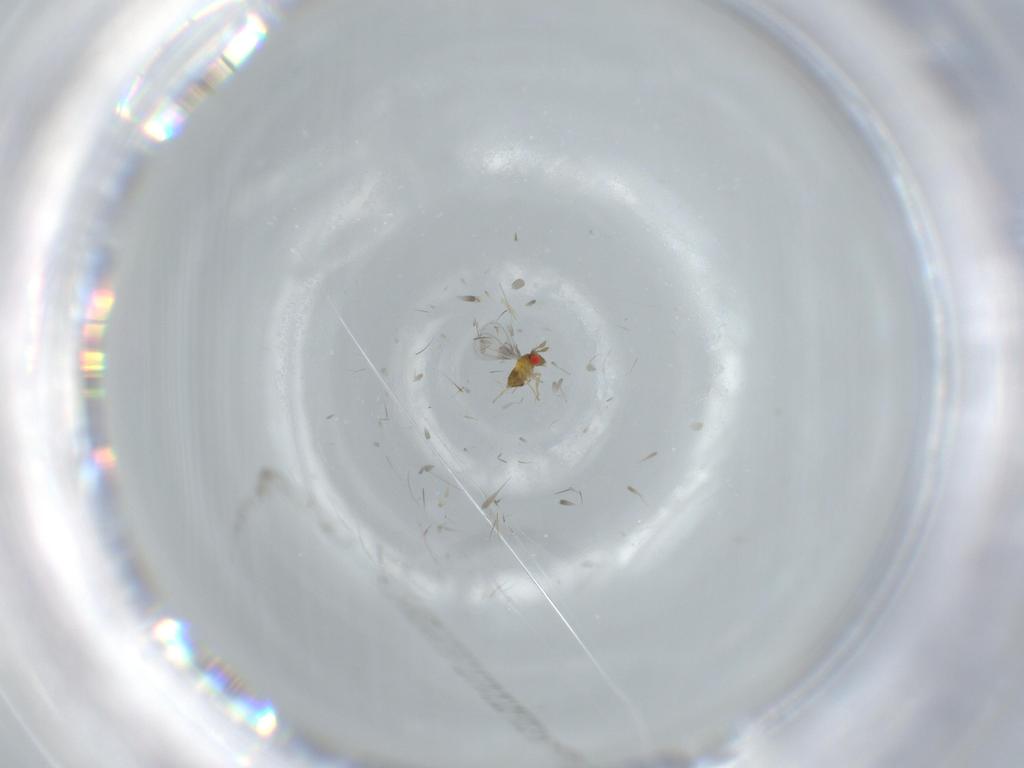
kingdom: Animalia
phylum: Arthropoda
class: Insecta
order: Hymenoptera
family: Trichogrammatidae
